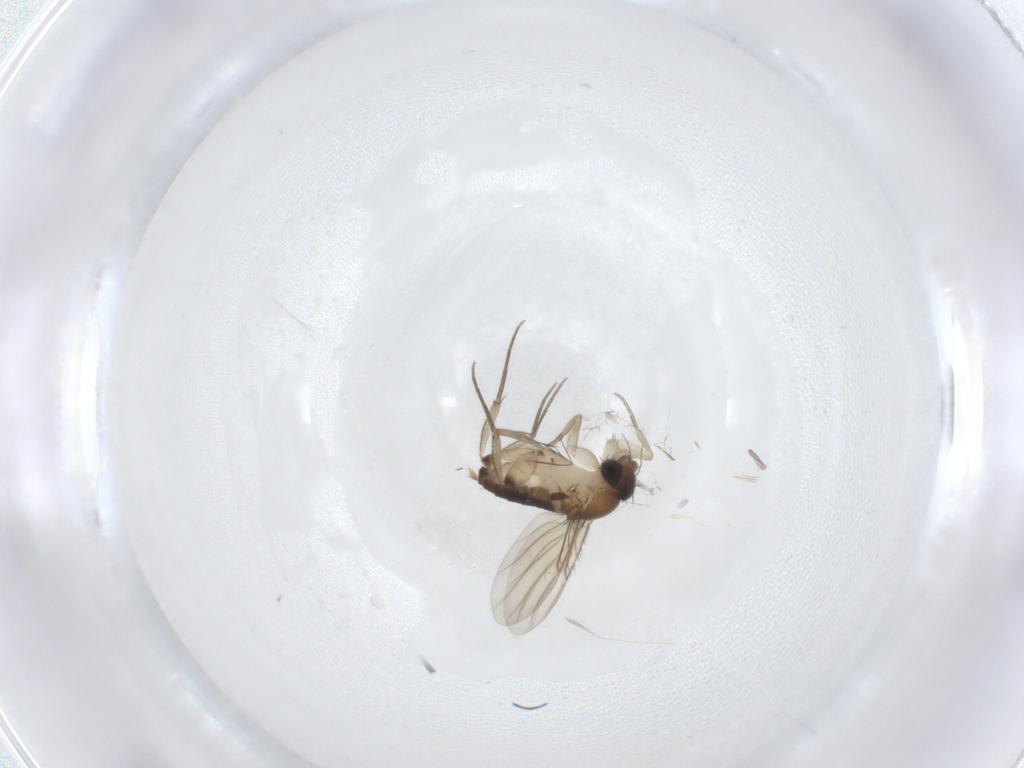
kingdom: Animalia
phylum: Arthropoda
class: Insecta
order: Diptera
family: Phoridae
